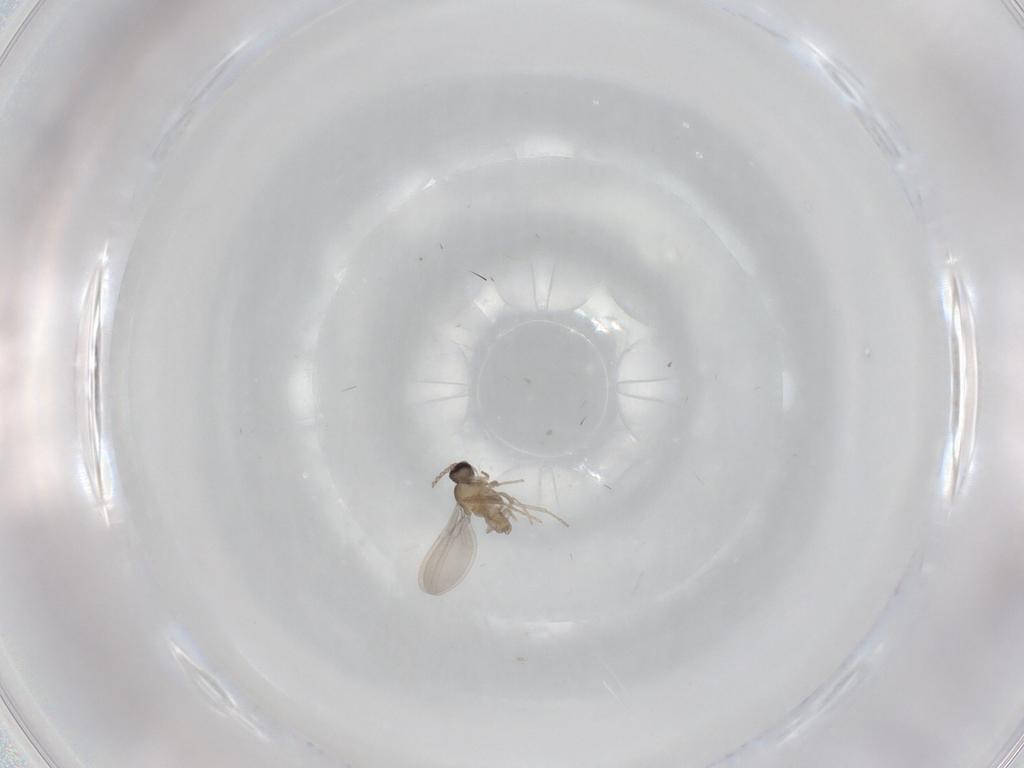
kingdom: Animalia
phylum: Arthropoda
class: Insecta
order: Diptera
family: Cecidomyiidae
